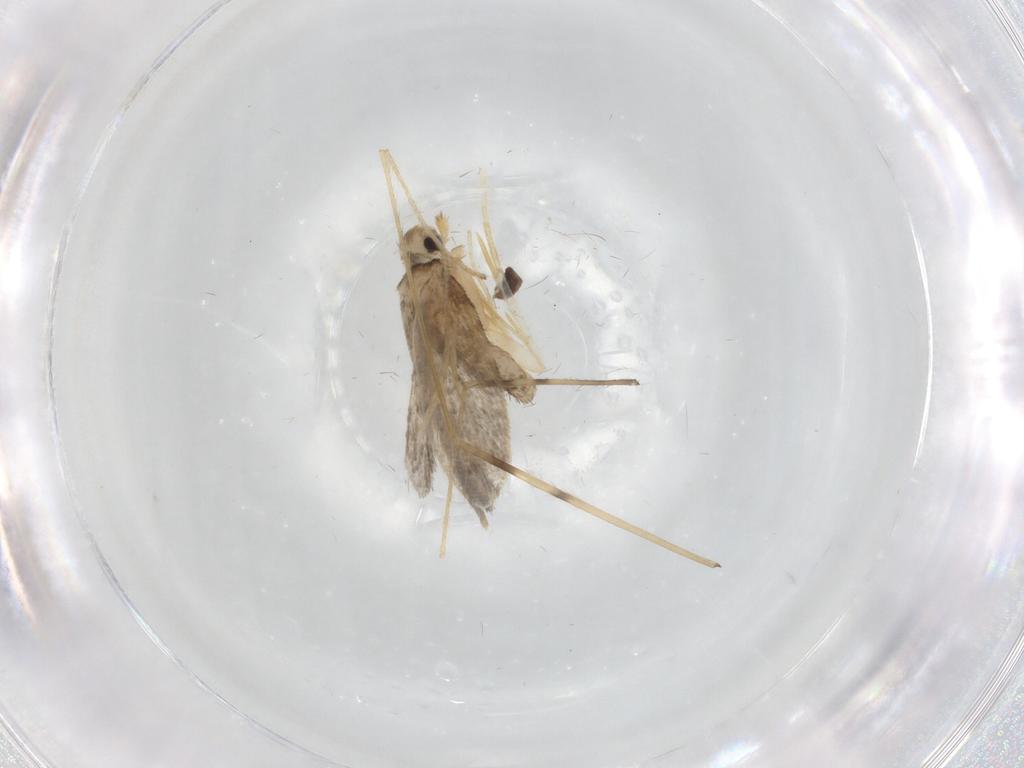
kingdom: Animalia
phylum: Arthropoda
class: Insecta
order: Lepidoptera
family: Psychidae
